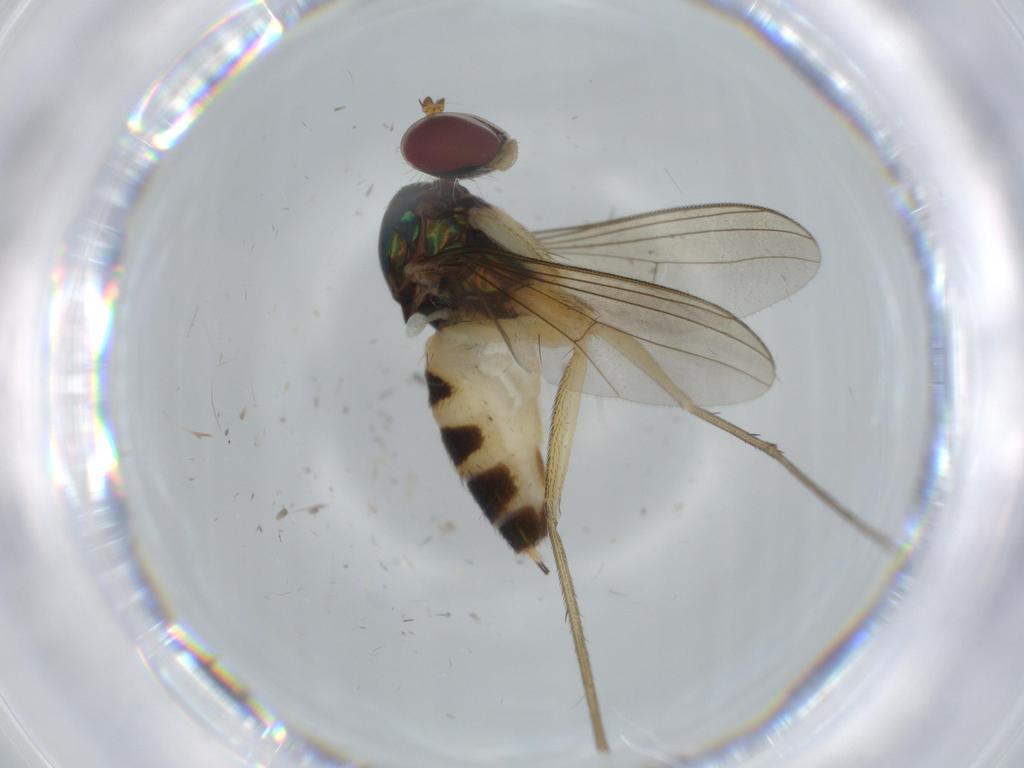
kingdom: Animalia
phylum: Arthropoda
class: Insecta
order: Diptera
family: Dolichopodidae
